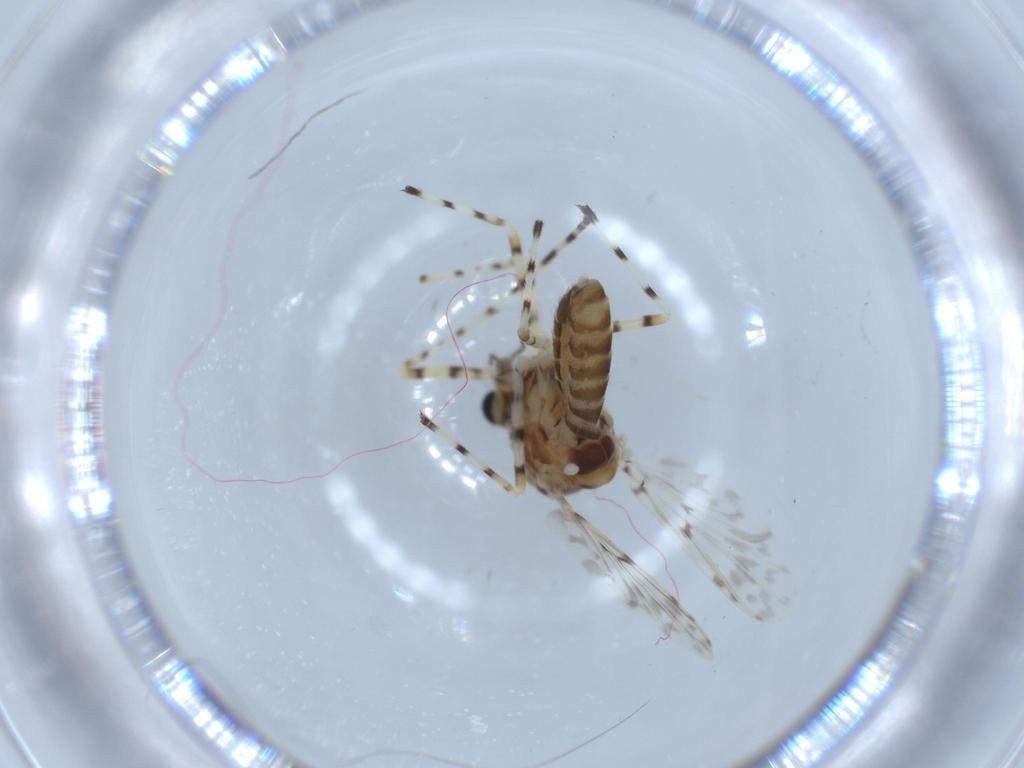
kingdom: Animalia
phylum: Arthropoda
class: Insecta
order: Diptera
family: Chironomidae
